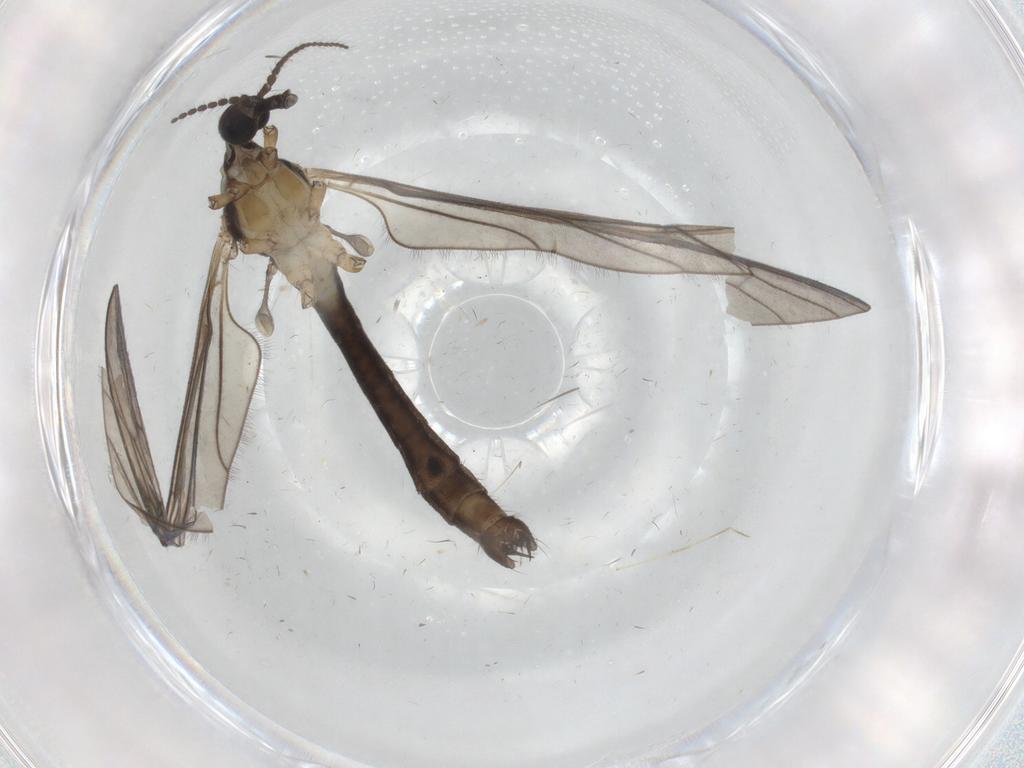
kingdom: Animalia
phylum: Arthropoda
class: Insecta
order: Diptera
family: Limoniidae
